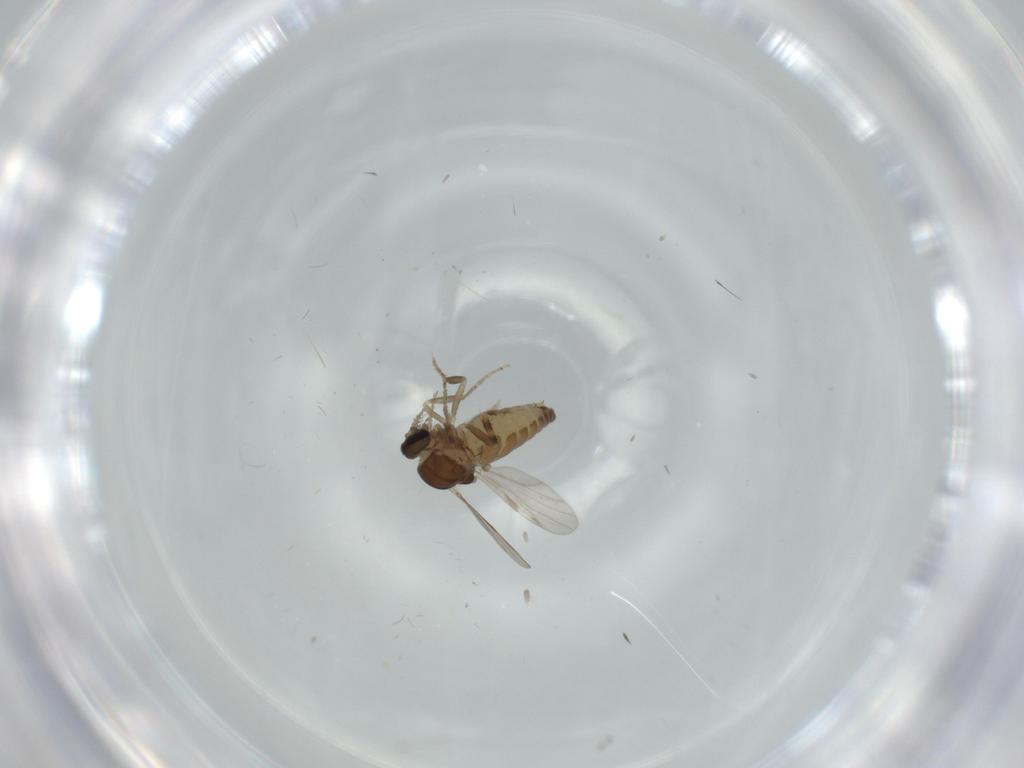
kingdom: Animalia
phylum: Arthropoda
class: Insecta
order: Diptera
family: Ceratopogonidae
